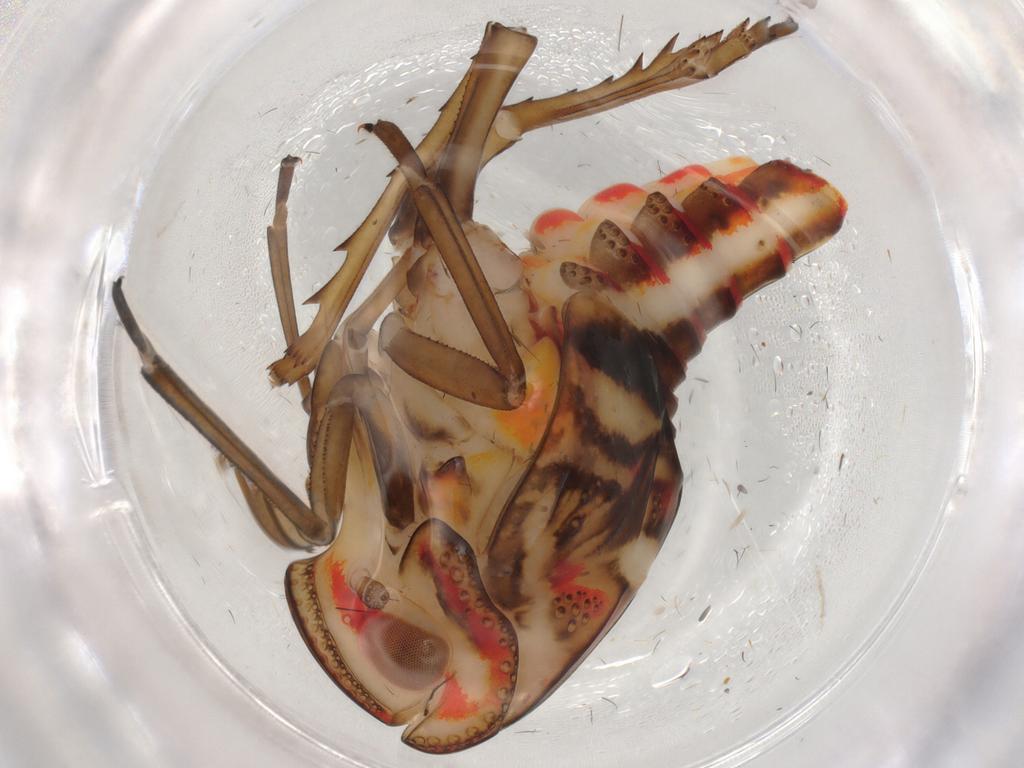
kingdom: Animalia
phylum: Arthropoda
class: Insecta
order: Hemiptera
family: Nogodinidae
